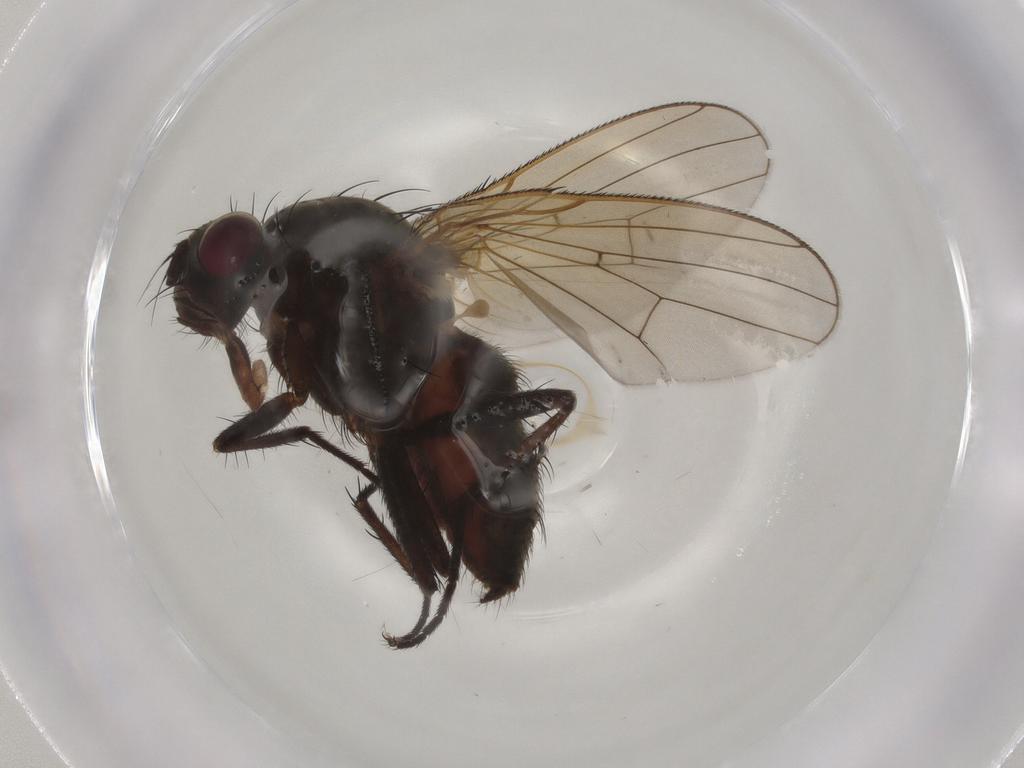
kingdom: Animalia
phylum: Arthropoda
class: Insecta
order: Diptera
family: Anthomyiidae
